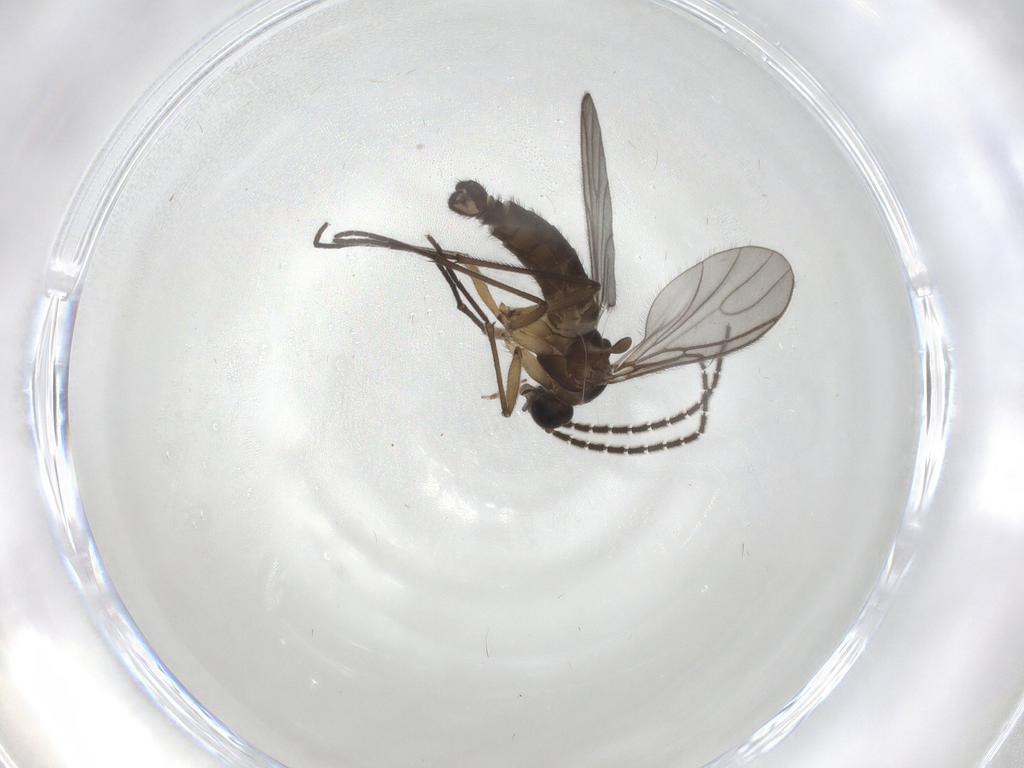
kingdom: Animalia
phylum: Arthropoda
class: Insecta
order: Diptera
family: Sciaridae
